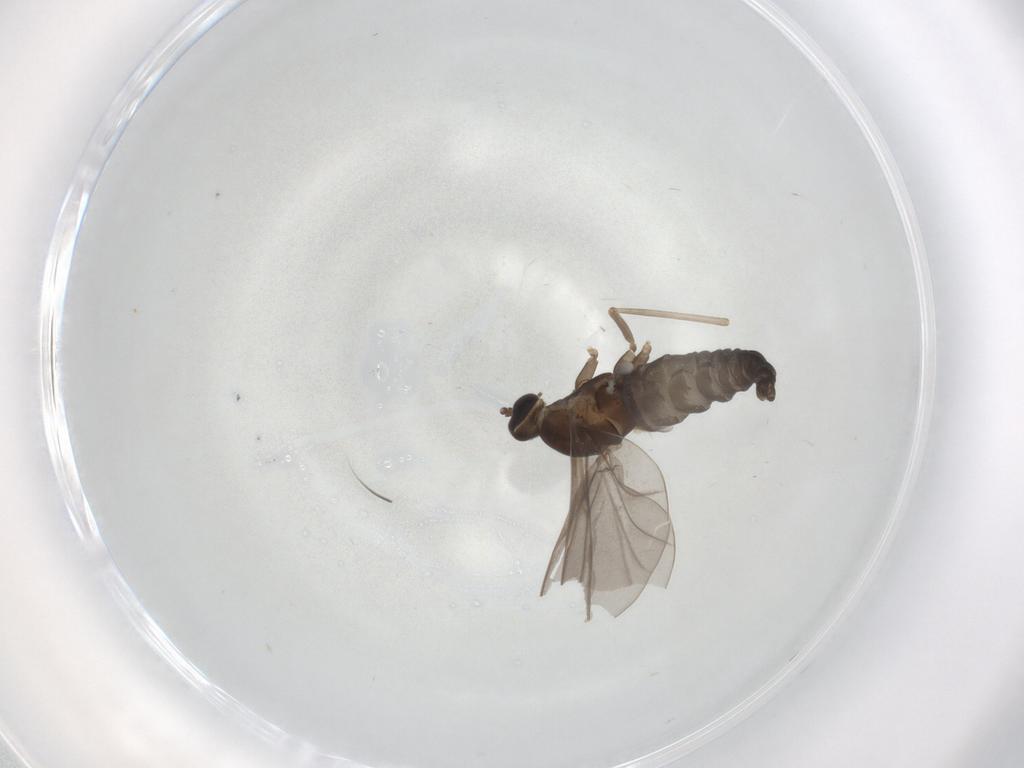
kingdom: Animalia
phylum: Arthropoda
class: Insecta
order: Diptera
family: Cecidomyiidae
